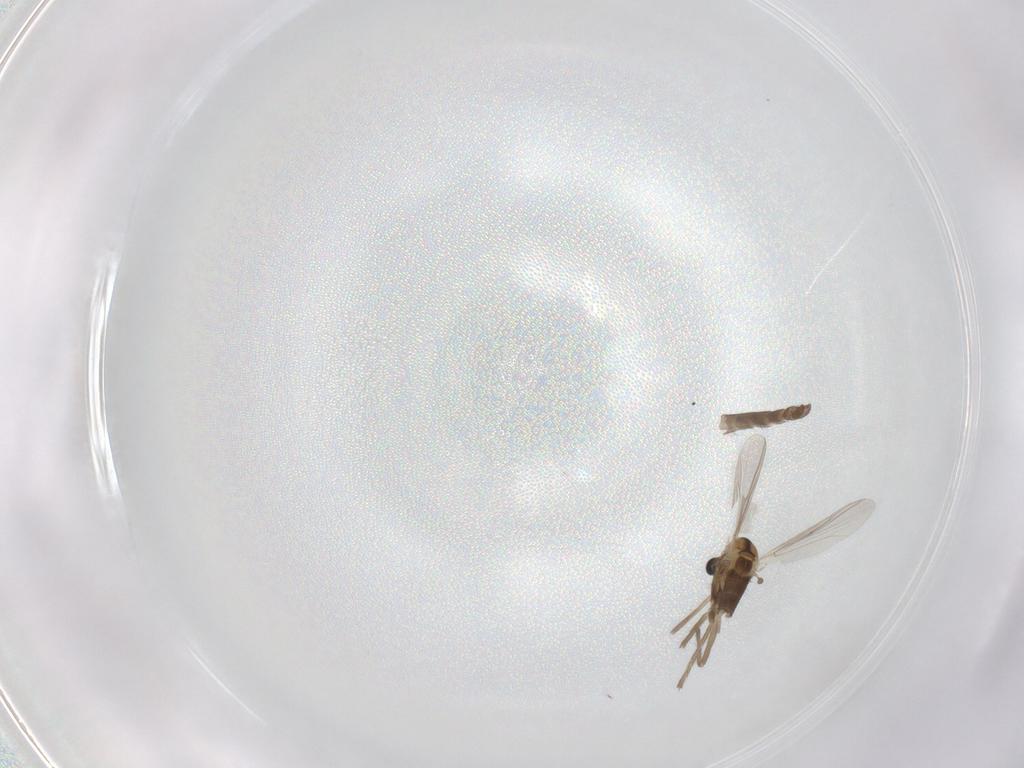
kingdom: Animalia
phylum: Arthropoda
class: Insecta
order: Diptera
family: Chironomidae
